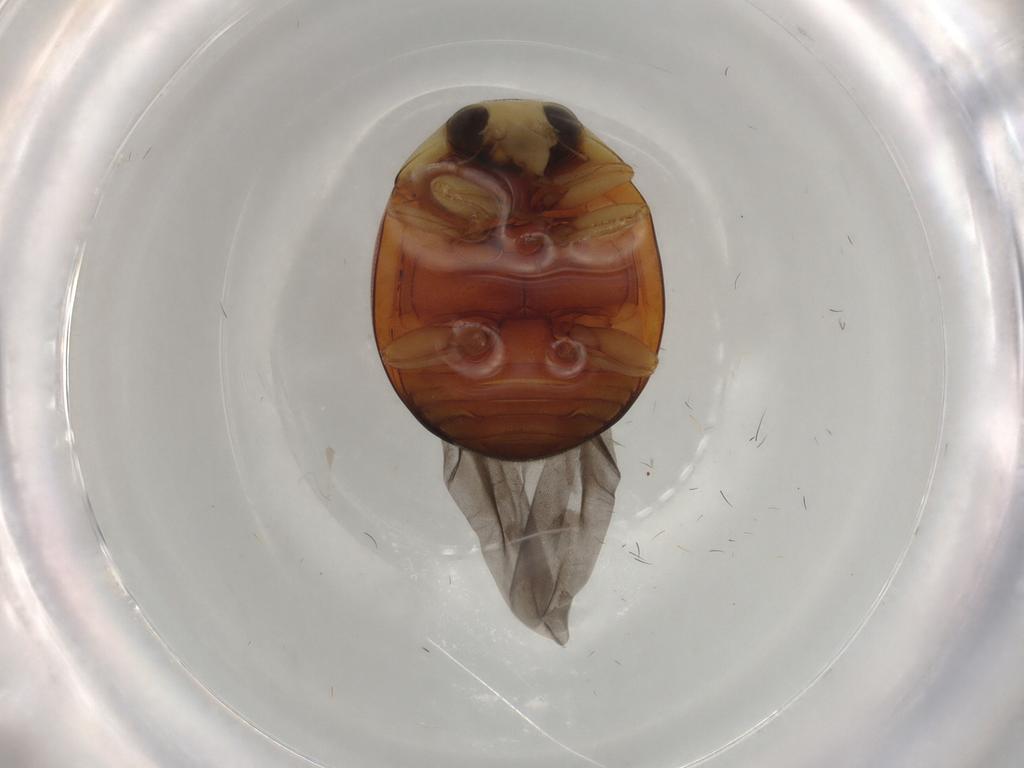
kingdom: Animalia
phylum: Arthropoda
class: Insecta
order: Coleoptera
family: Coccinellidae
